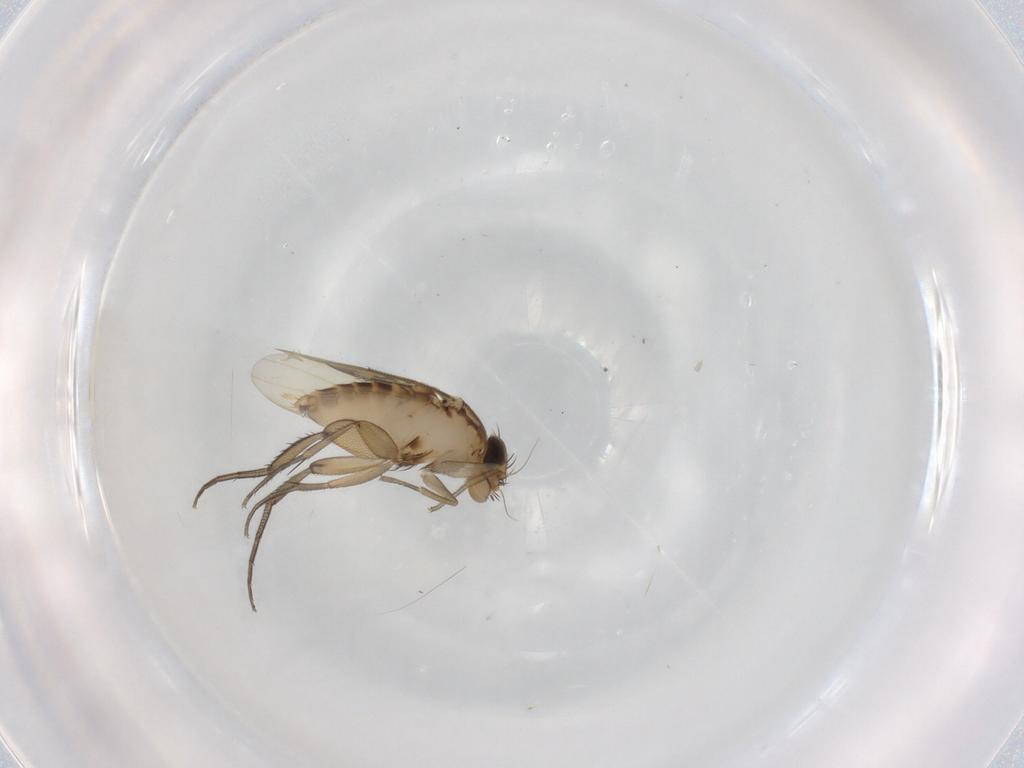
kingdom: Animalia
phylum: Arthropoda
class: Insecta
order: Diptera
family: Phoridae
